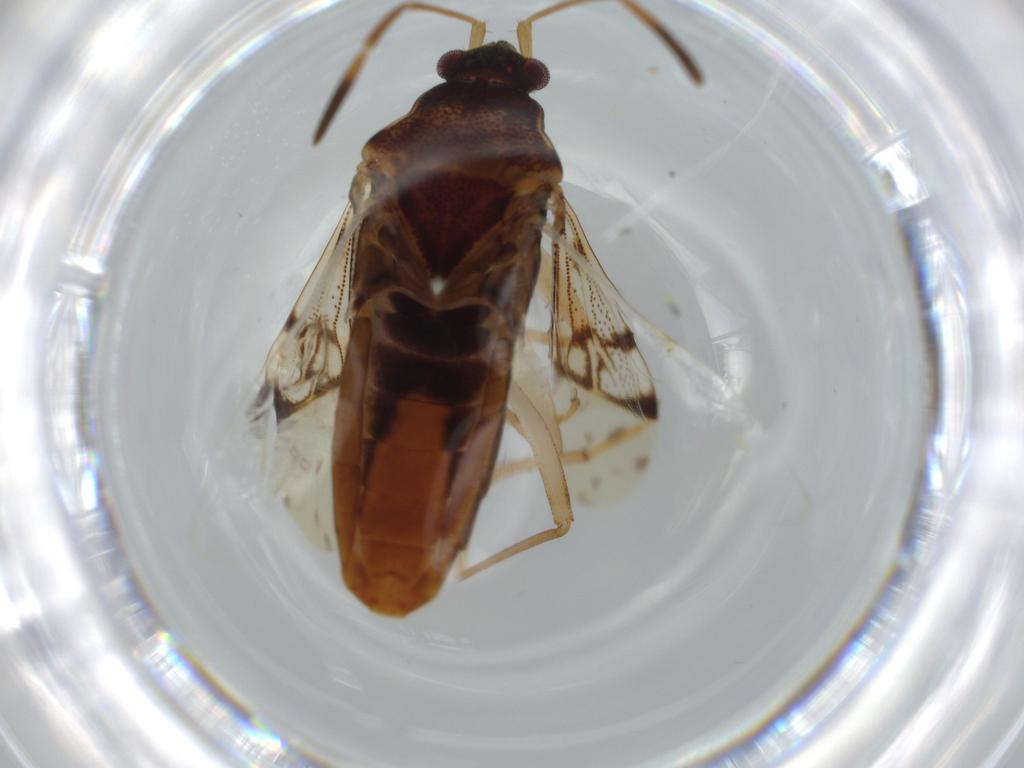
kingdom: Animalia
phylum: Arthropoda
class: Insecta
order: Hemiptera
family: Rhyparochromidae
